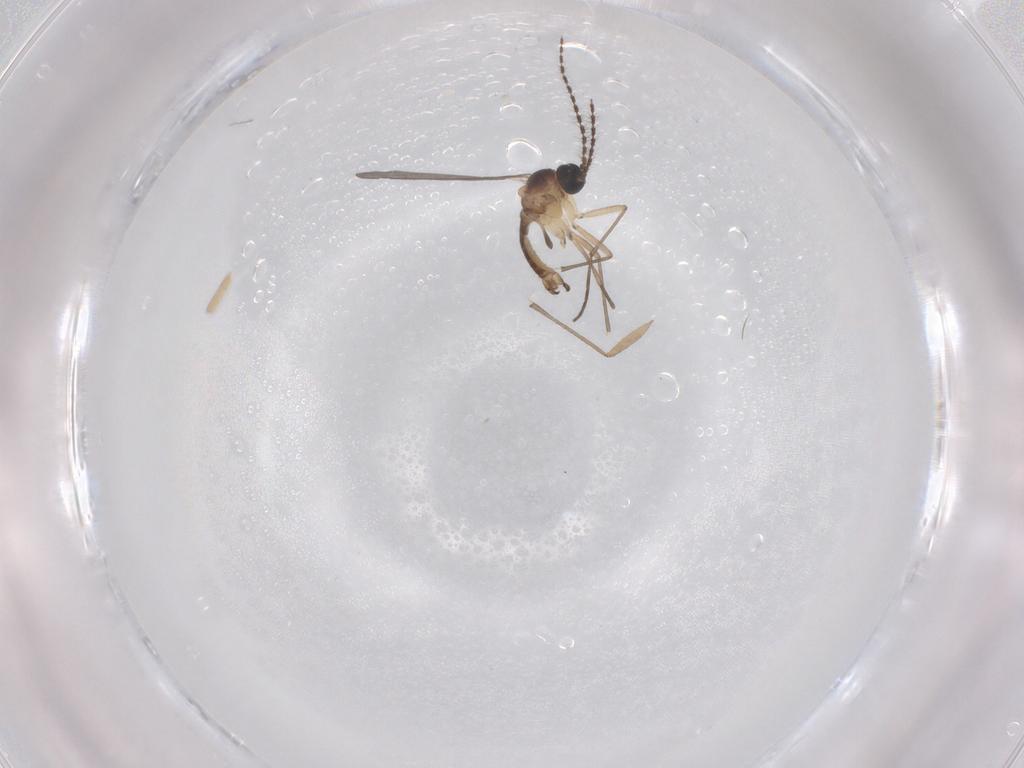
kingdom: Animalia
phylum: Arthropoda
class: Insecta
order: Diptera
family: Sciaridae
